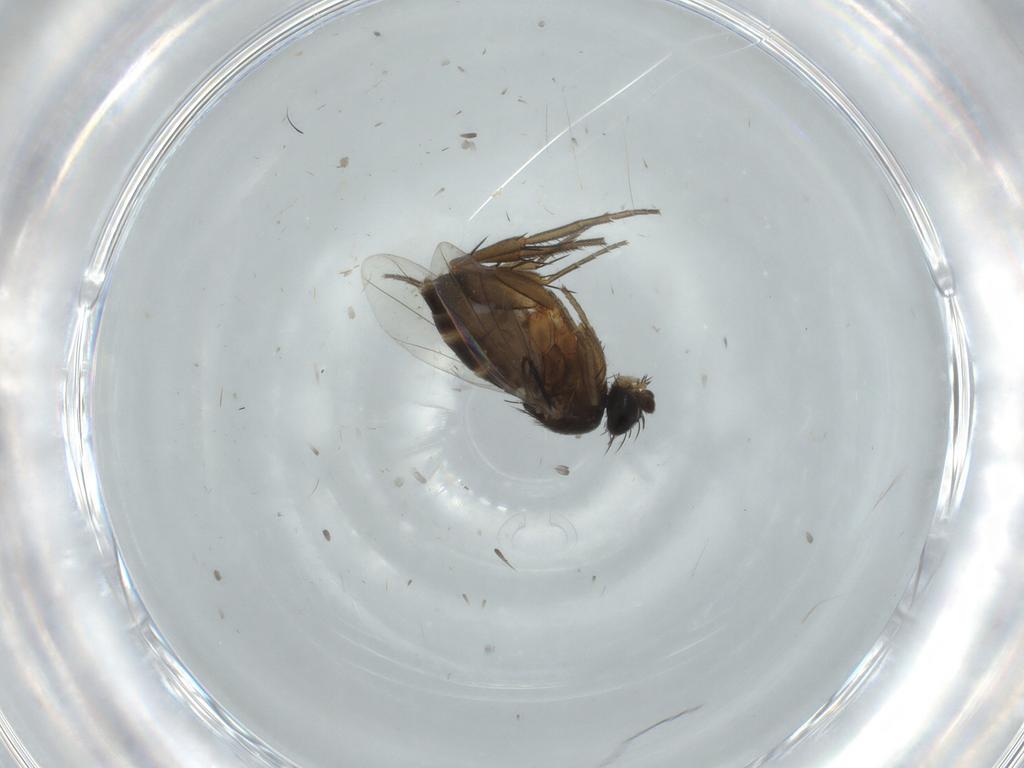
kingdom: Animalia
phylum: Arthropoda
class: Insecta
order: Diptera
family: Phoridae
